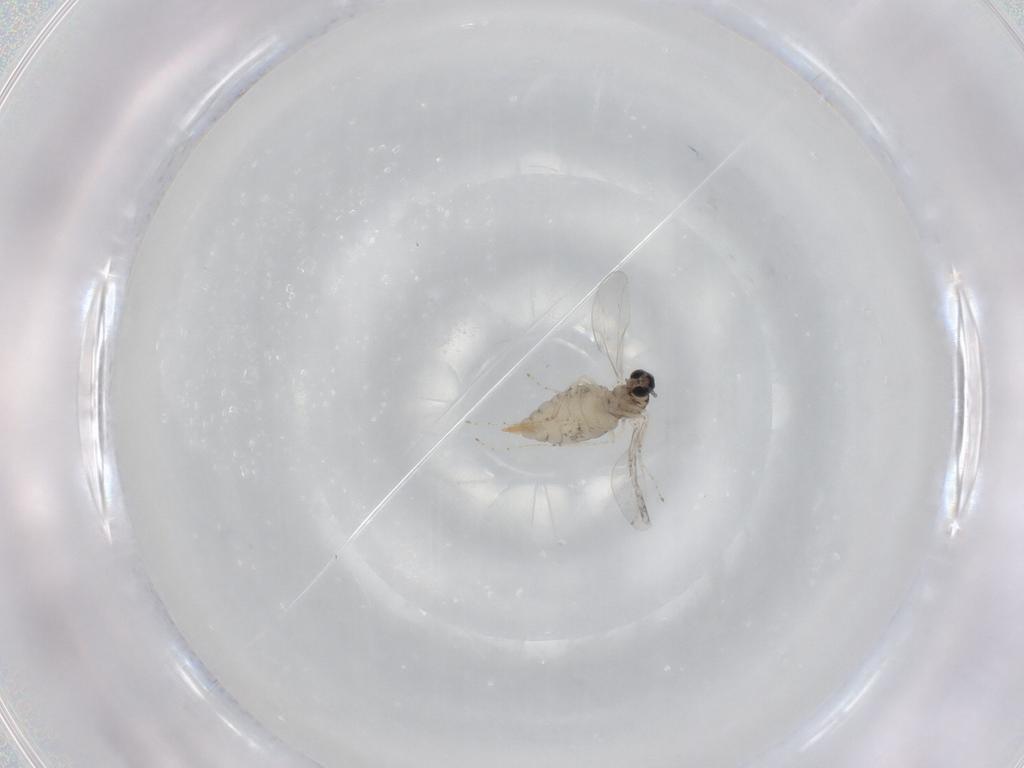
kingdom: Animalia
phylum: Arthropoda
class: Insecta
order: Diptera
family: Cecidomyiidae
